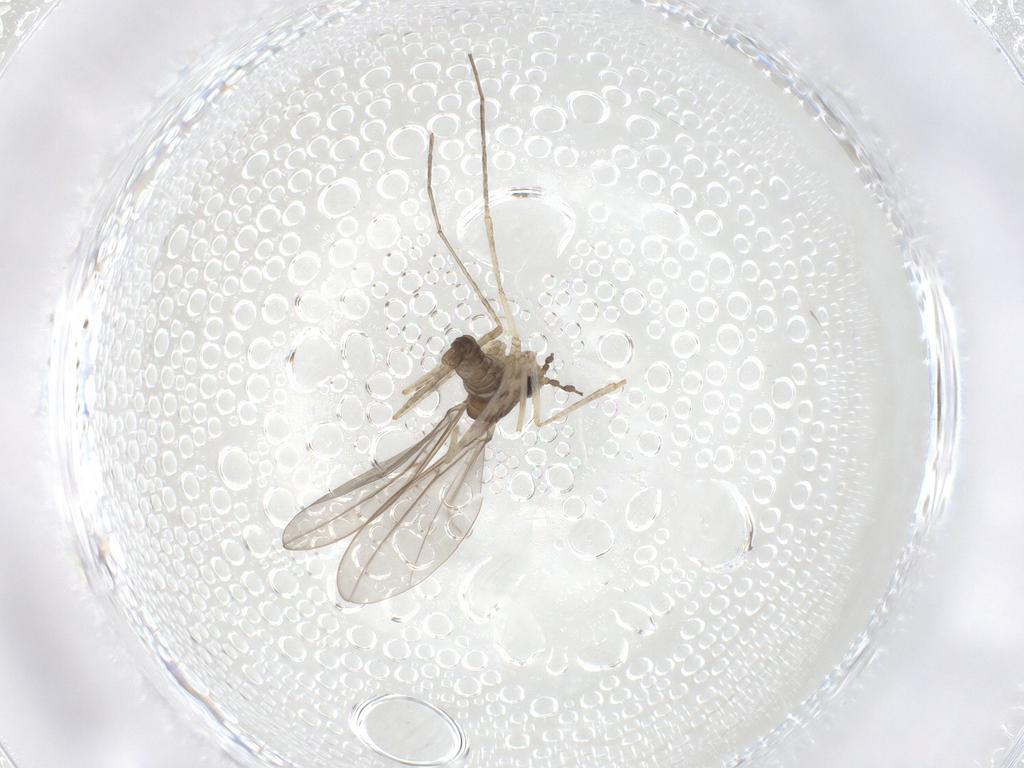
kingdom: Animalia
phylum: Arthropoda
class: Insecta
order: Diptera
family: Cecidomyiidae
